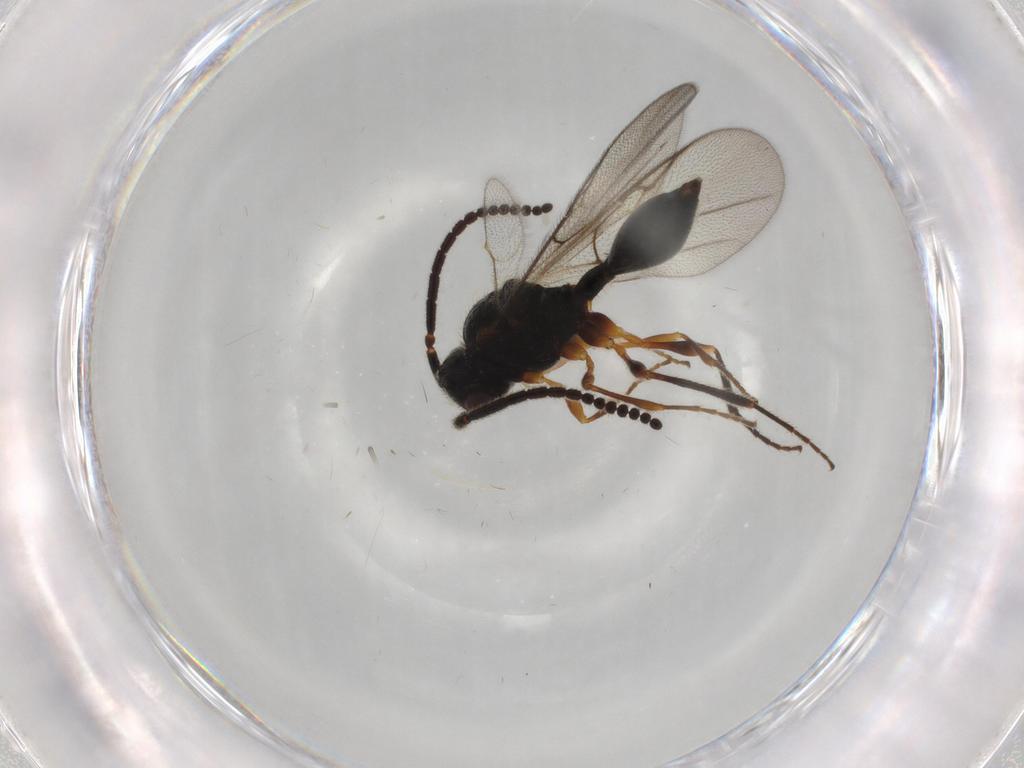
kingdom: Animalia
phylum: Arthropoda
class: Insecta
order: Hymenoptera
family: Diapriidae
